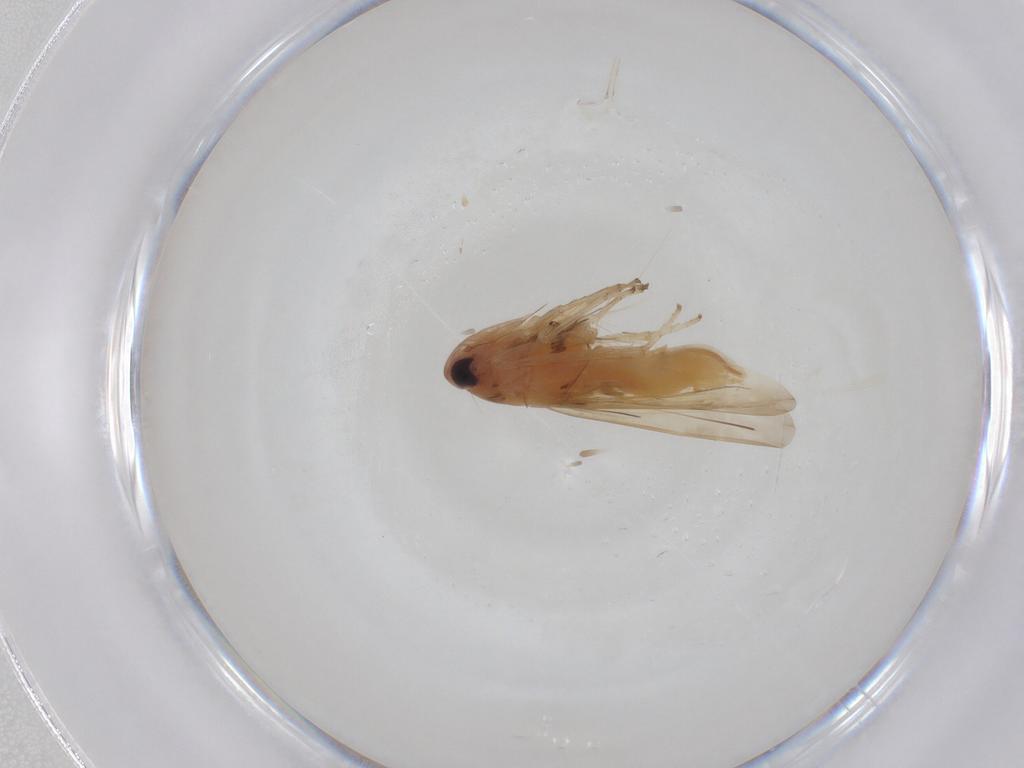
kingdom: Animalia
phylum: Arthropoda
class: Insecta
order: Hemiptera
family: Cicadellidae
